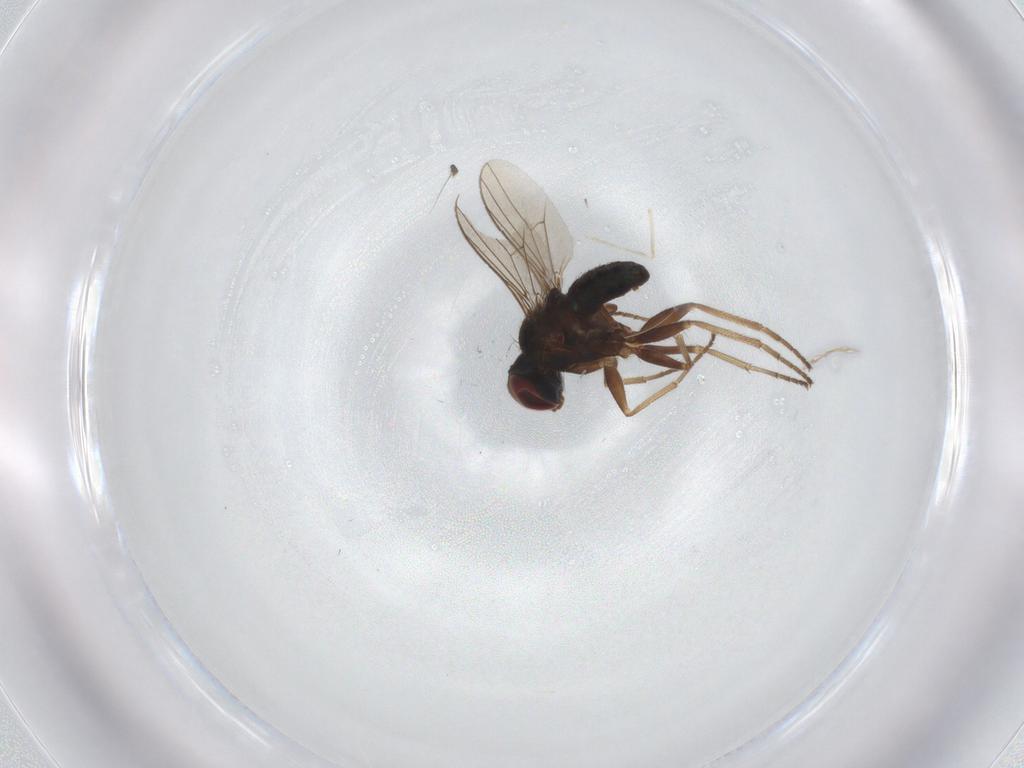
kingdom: Animalia
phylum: Arthropoda
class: Insecta
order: Diptera
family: Dolichopodidae
